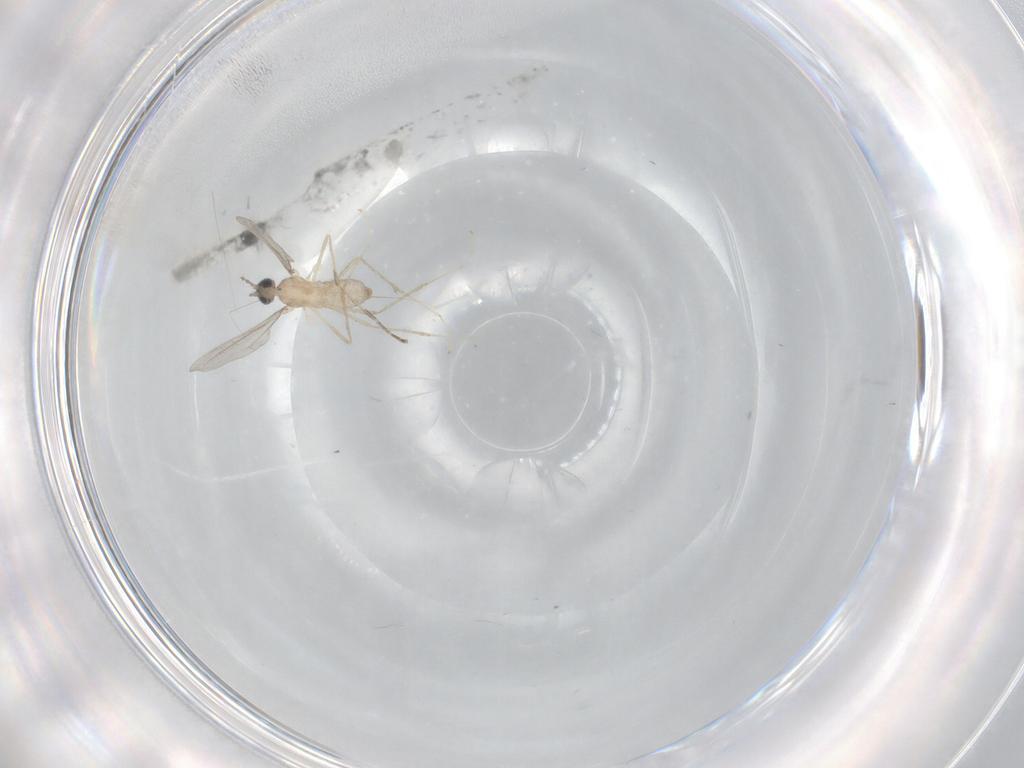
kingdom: Animalia
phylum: Arthropoda
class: Insecta
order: Diptera
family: Cecidomyiidae
